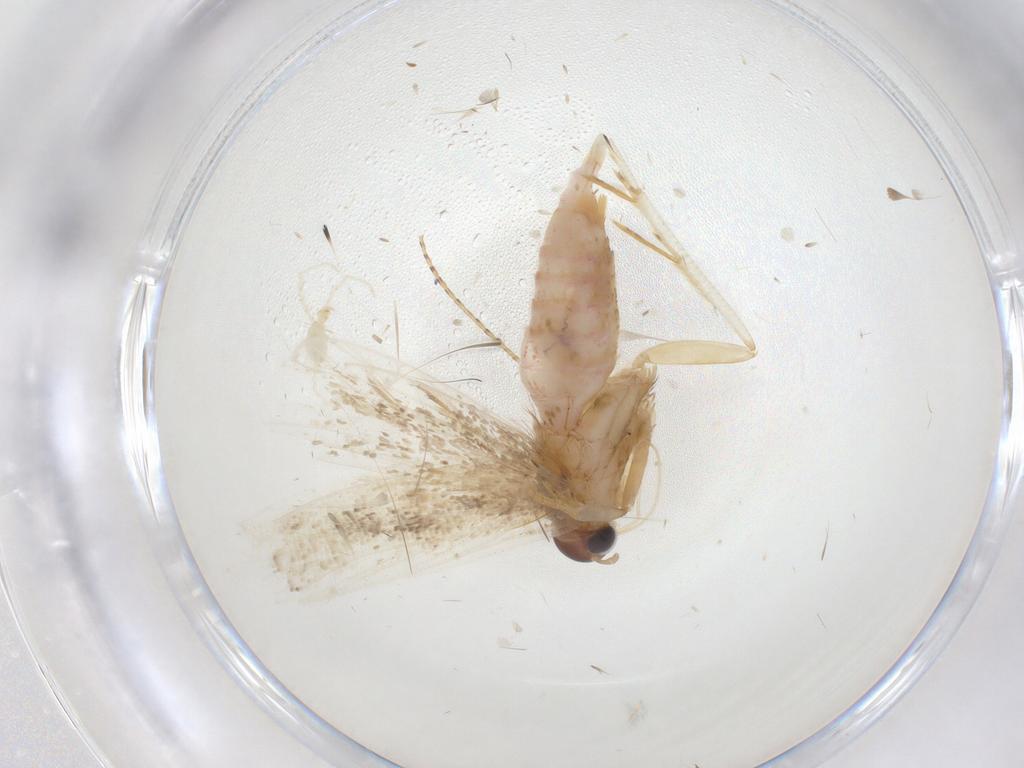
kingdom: Animalia
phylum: Arthropoda
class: Insecta
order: Lepidoptera
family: Gelechiidae
